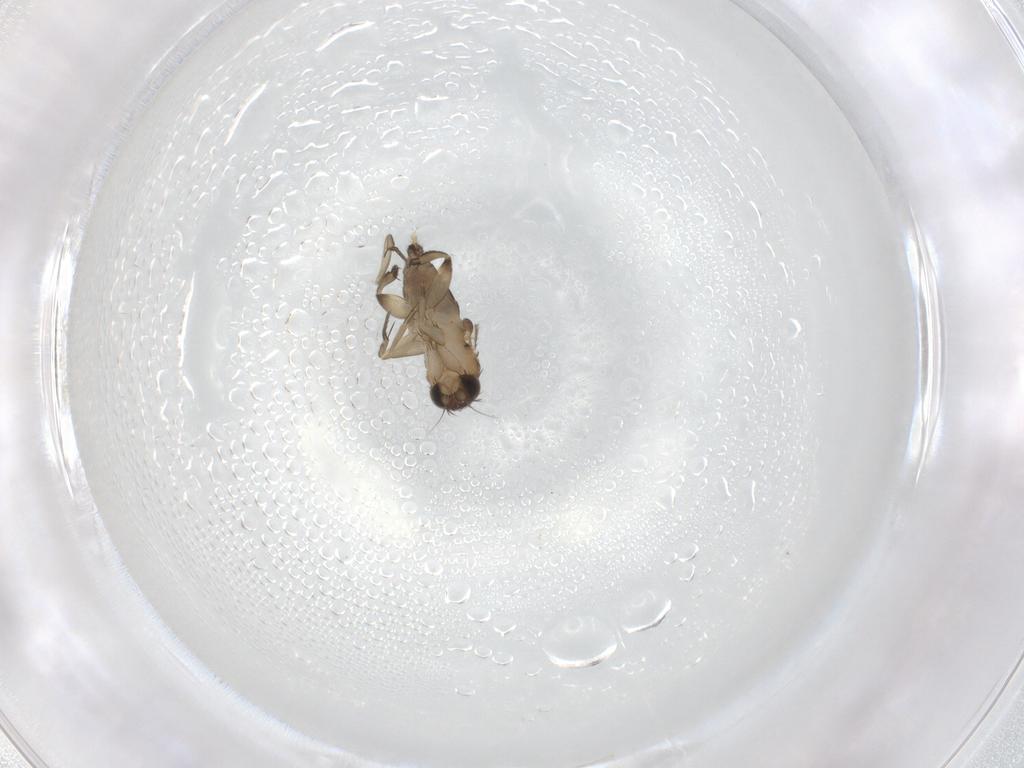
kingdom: Animalia
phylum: Arthropoda
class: Insecta
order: Diptera
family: Phoridae
